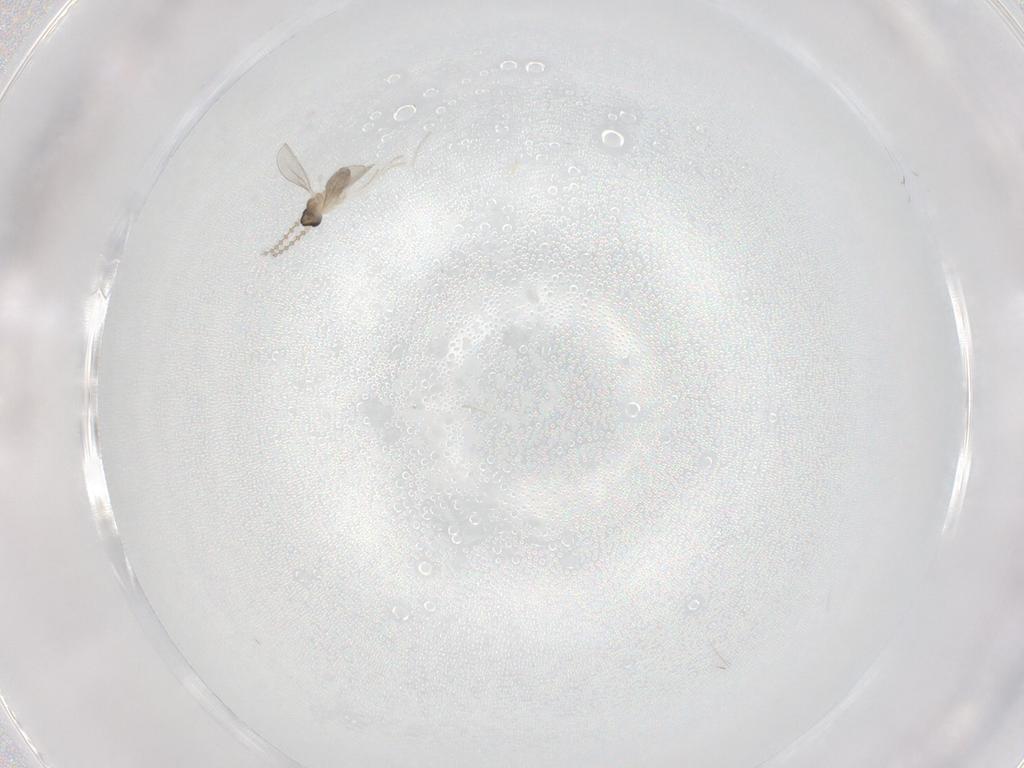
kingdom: Animalia
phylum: Arthropoda
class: Insecta
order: Diptera
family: Cecidomyiidae
